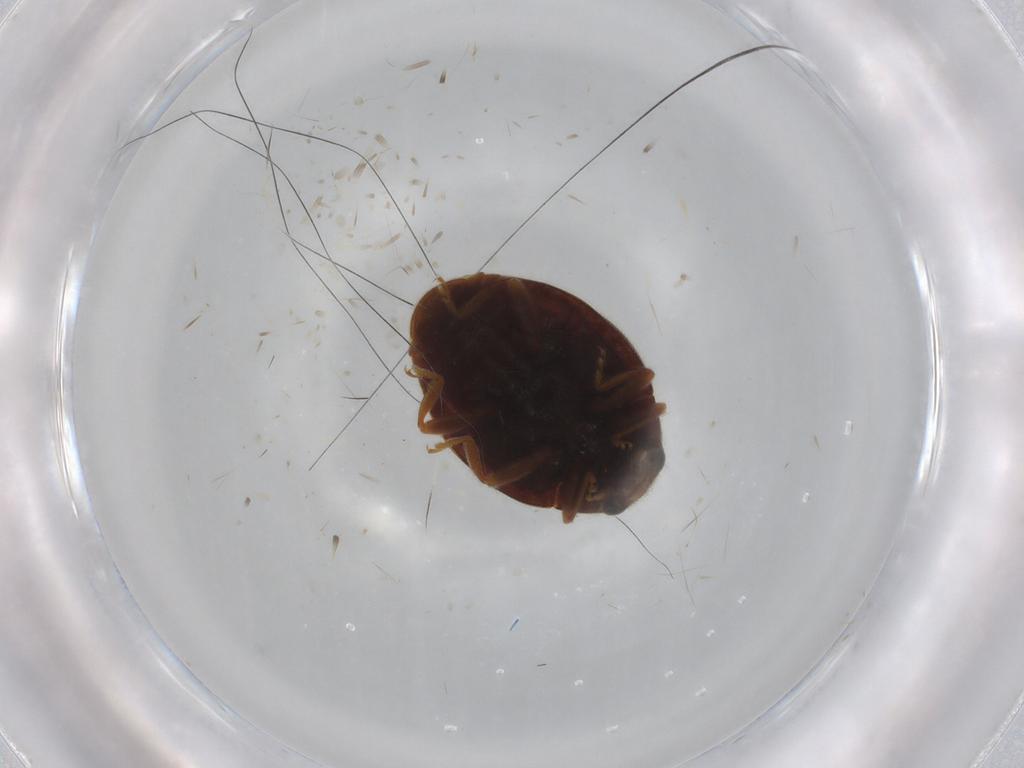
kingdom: Animalia
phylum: Arthropoda
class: Insecta
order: Coleoptera
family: Coccinellidae
